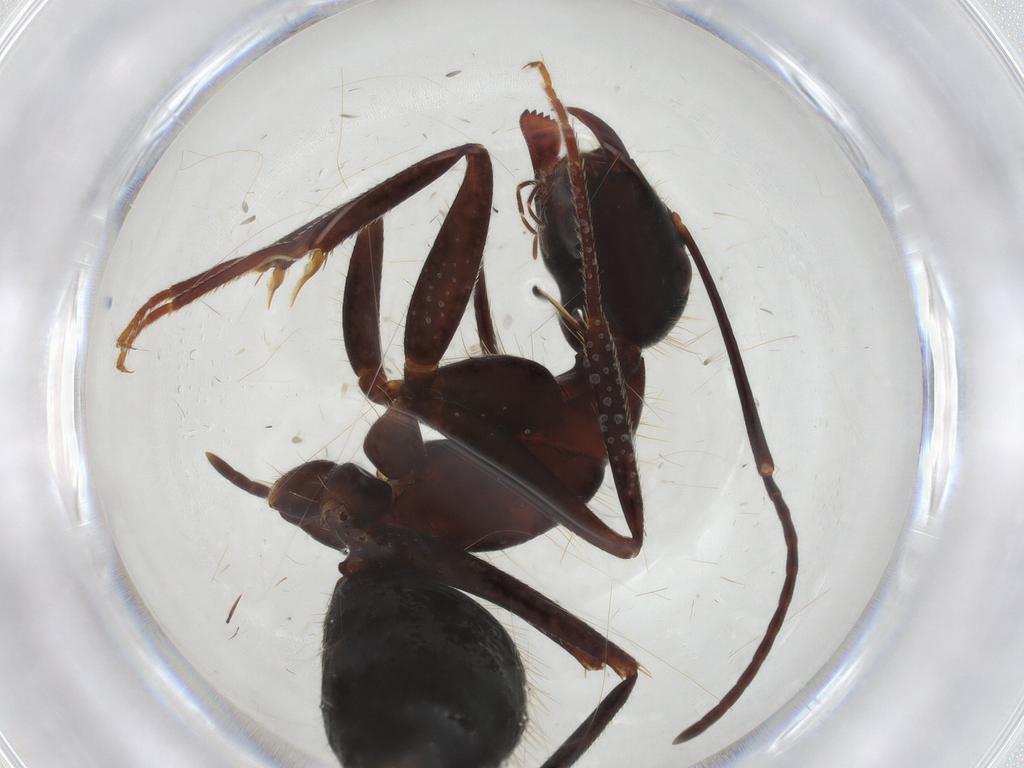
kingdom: Animalia
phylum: Arthropoda
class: Insecta
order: Hymenoptera
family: Formicidae
